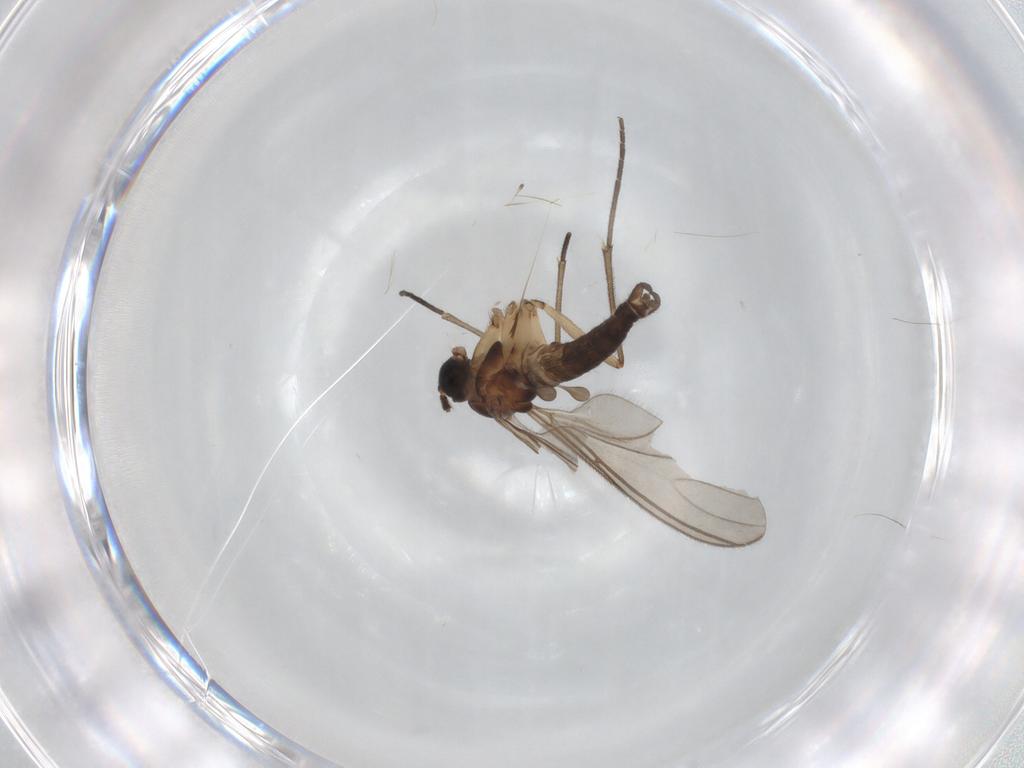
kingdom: Animalia
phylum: Arthropoda
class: Insecta
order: Diptera
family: Sciaridae
